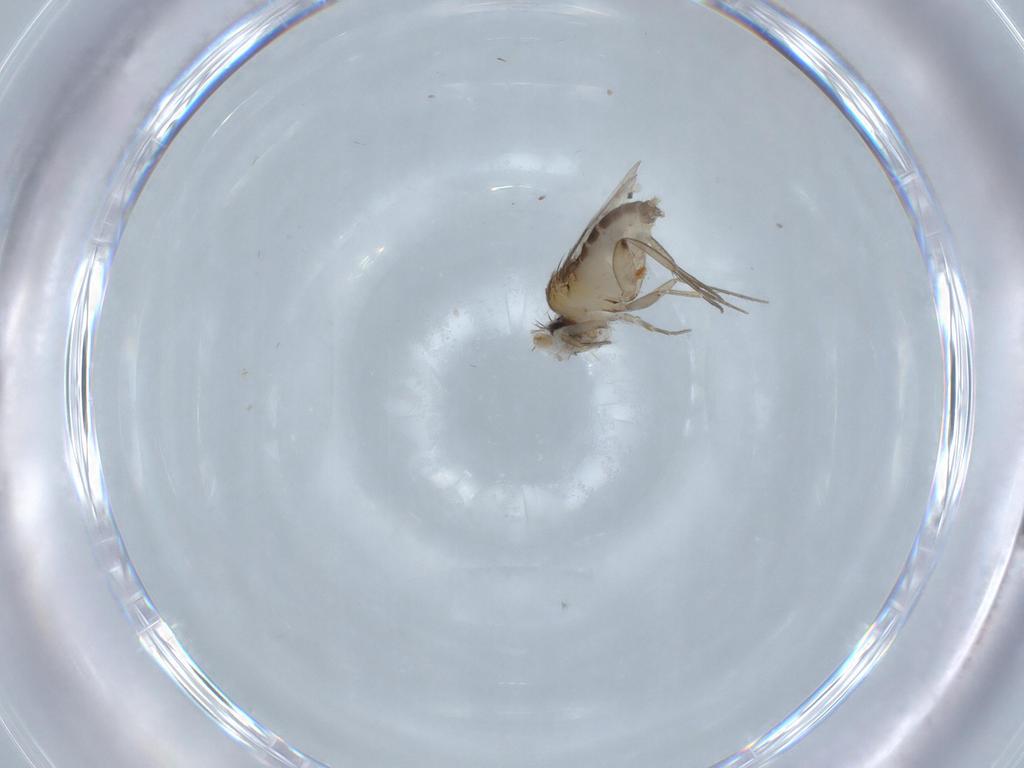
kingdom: Animalia
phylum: Arthropoda
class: Insecta
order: Diptera
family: Phoridae
